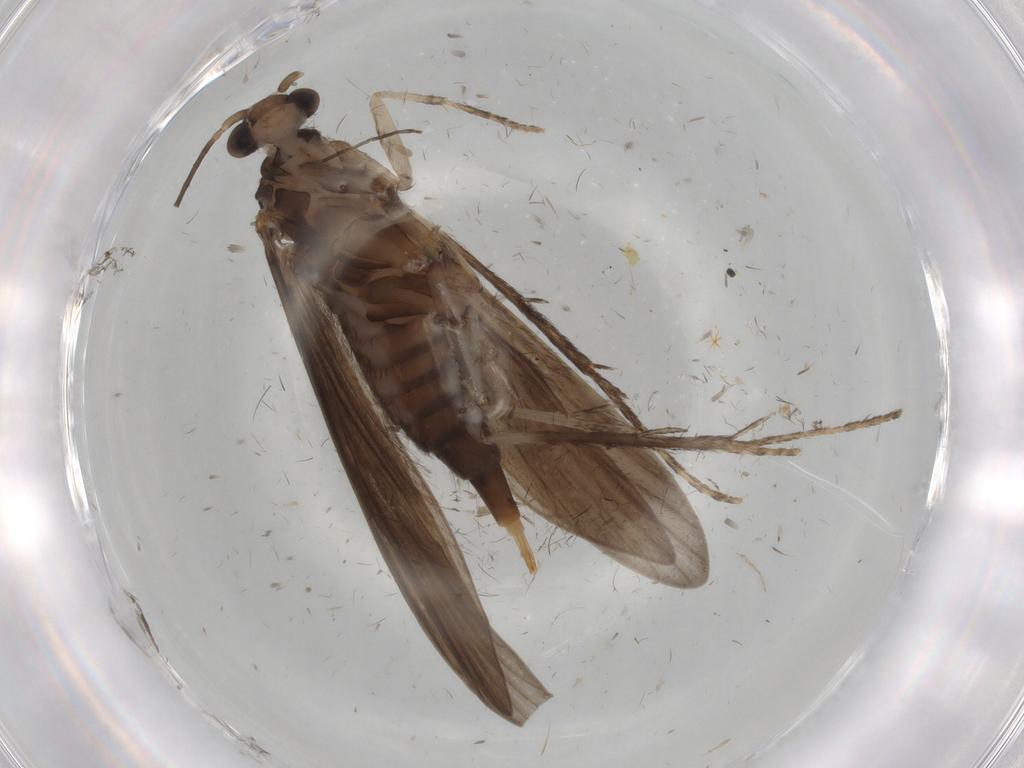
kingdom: Animalia
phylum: Arthropoda
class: Insecta
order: Trichoptera
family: Xiphocentronidae
